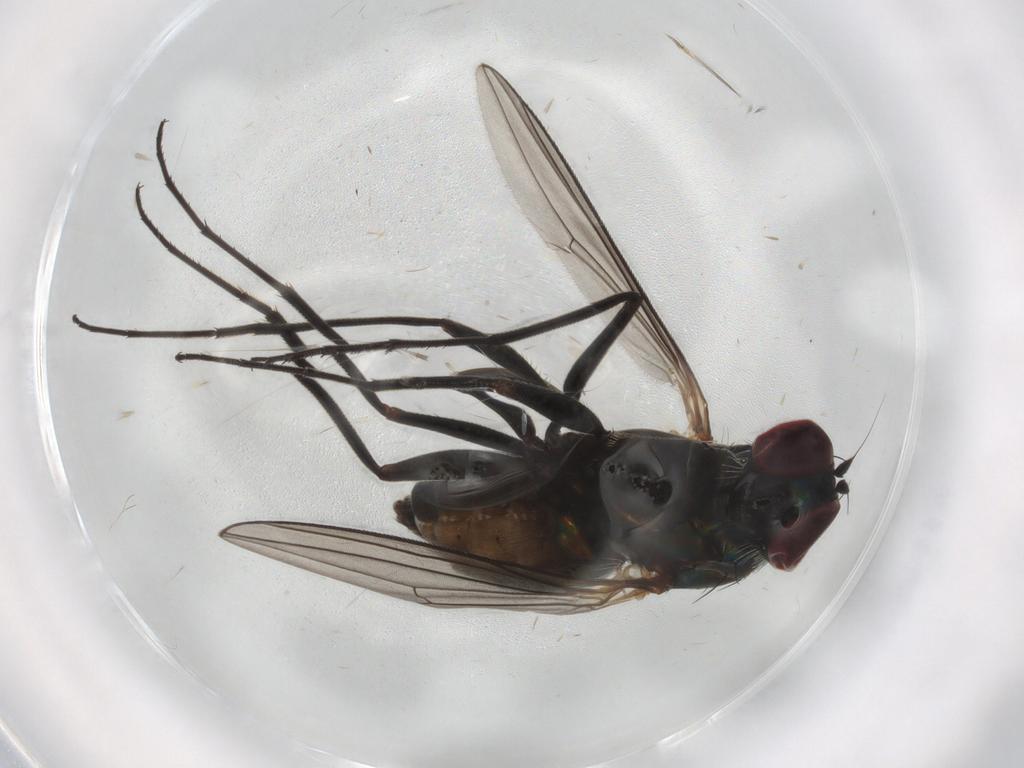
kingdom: Animalia
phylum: Arthropoda
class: Insecta
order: Diptera
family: Dolichopodidae
